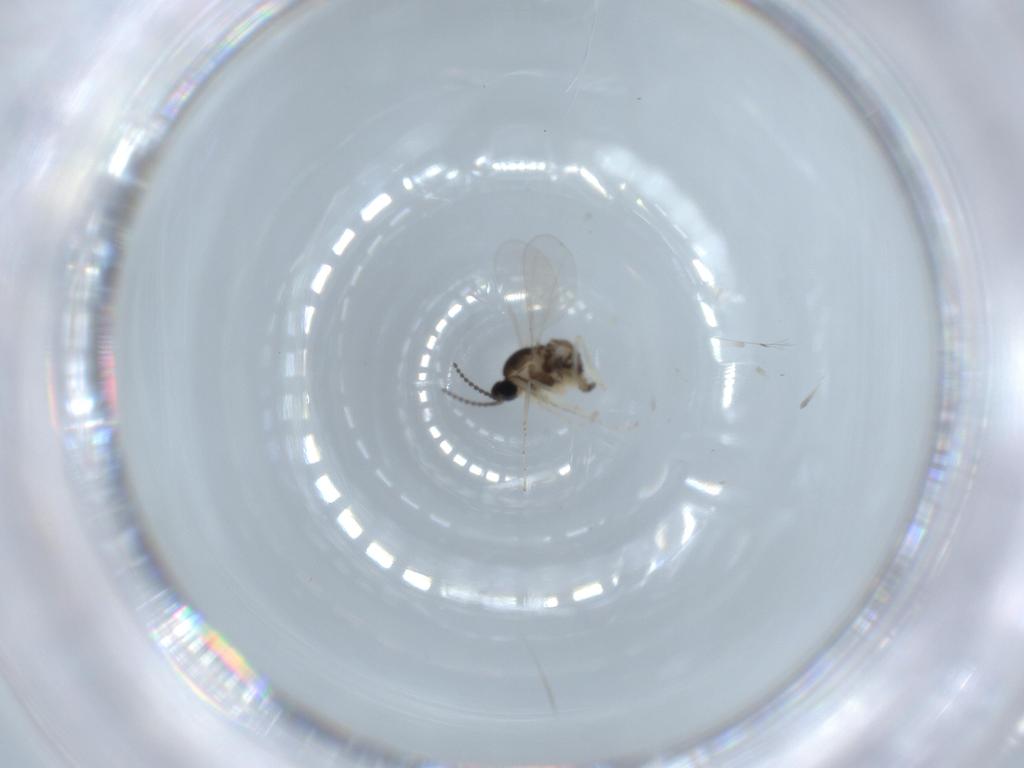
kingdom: Animalia
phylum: Arthropoda
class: Insecta
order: Diptera
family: Cecidomyiidae
